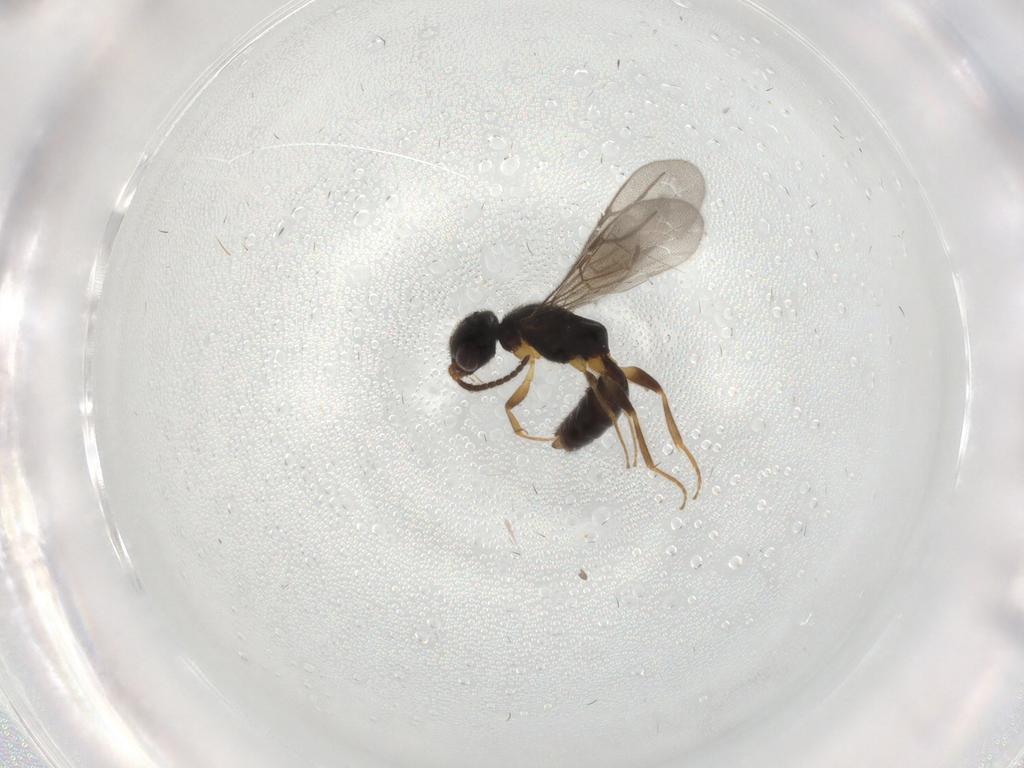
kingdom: Animalia
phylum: Arthropoda
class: Insecta
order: Hymenoptera
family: Bethylidae
